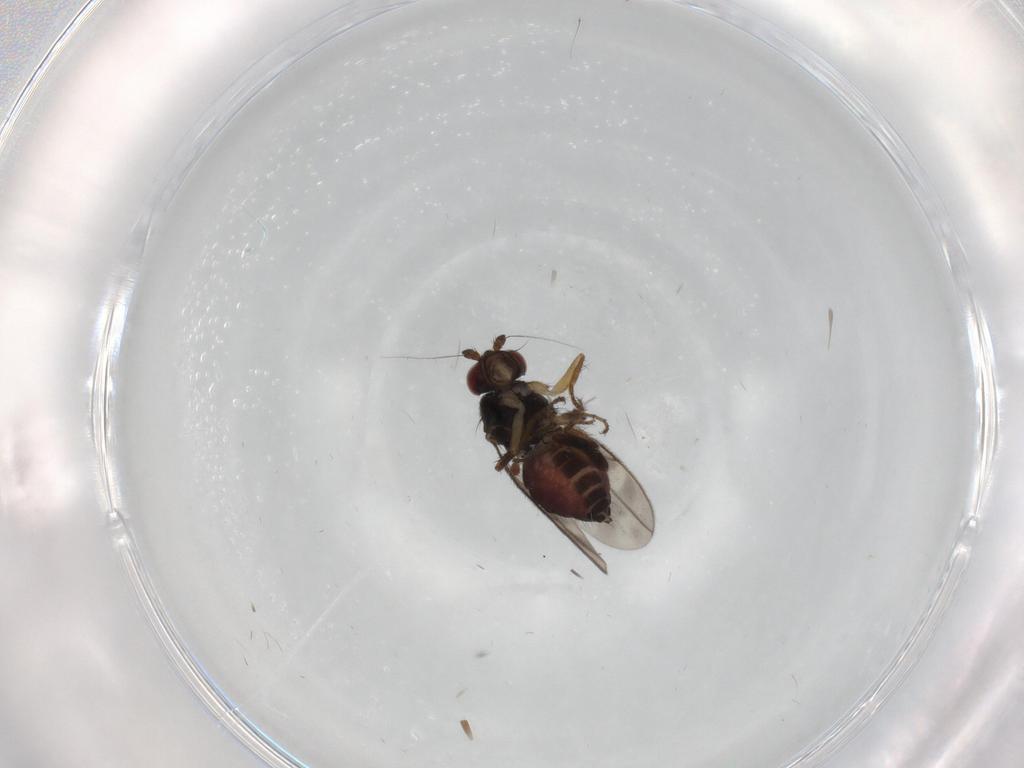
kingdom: Animalia
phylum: Arthropoda
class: Insecta
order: Diptera
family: Sphaeroceridae
